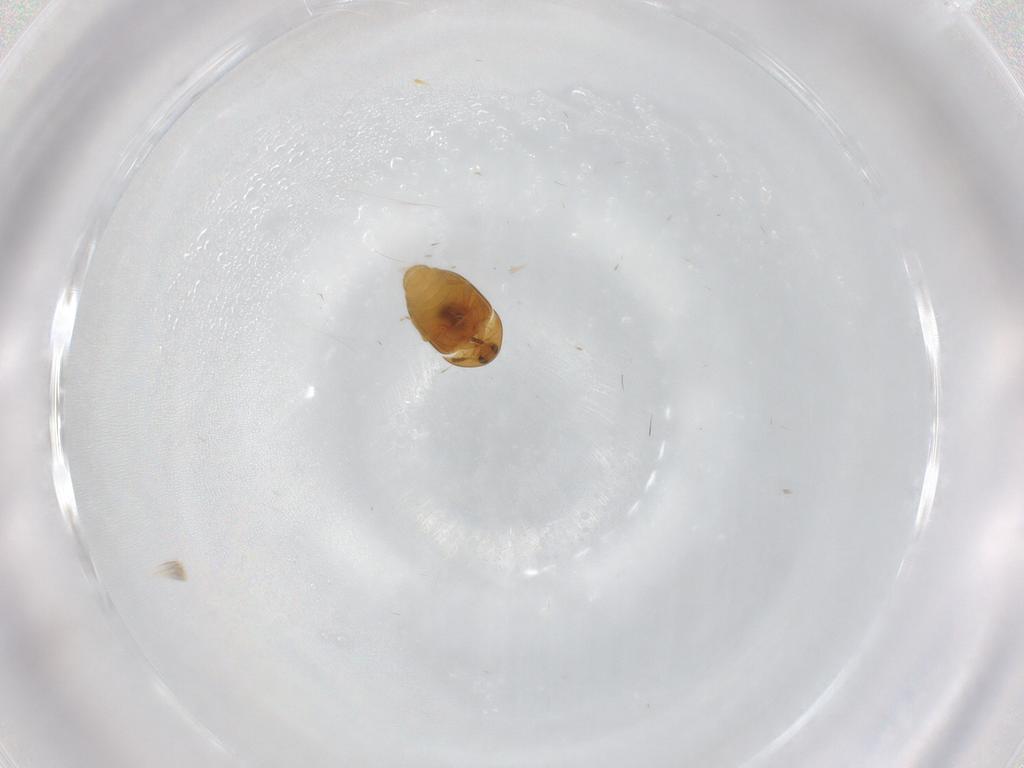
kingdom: Animalia
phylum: Arthropoda
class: Insecta
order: Coleoptera
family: Corylophidae
